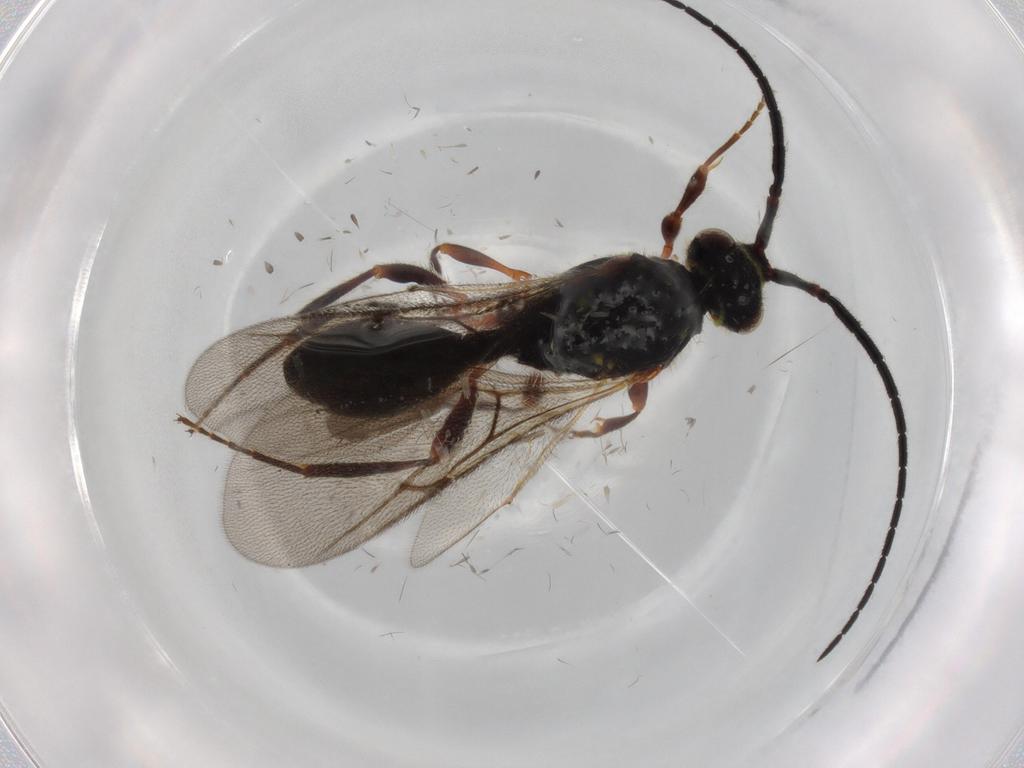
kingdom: Animalia
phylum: Arthropoda
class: Insecta
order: Hymenoptera
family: Diapriidae
